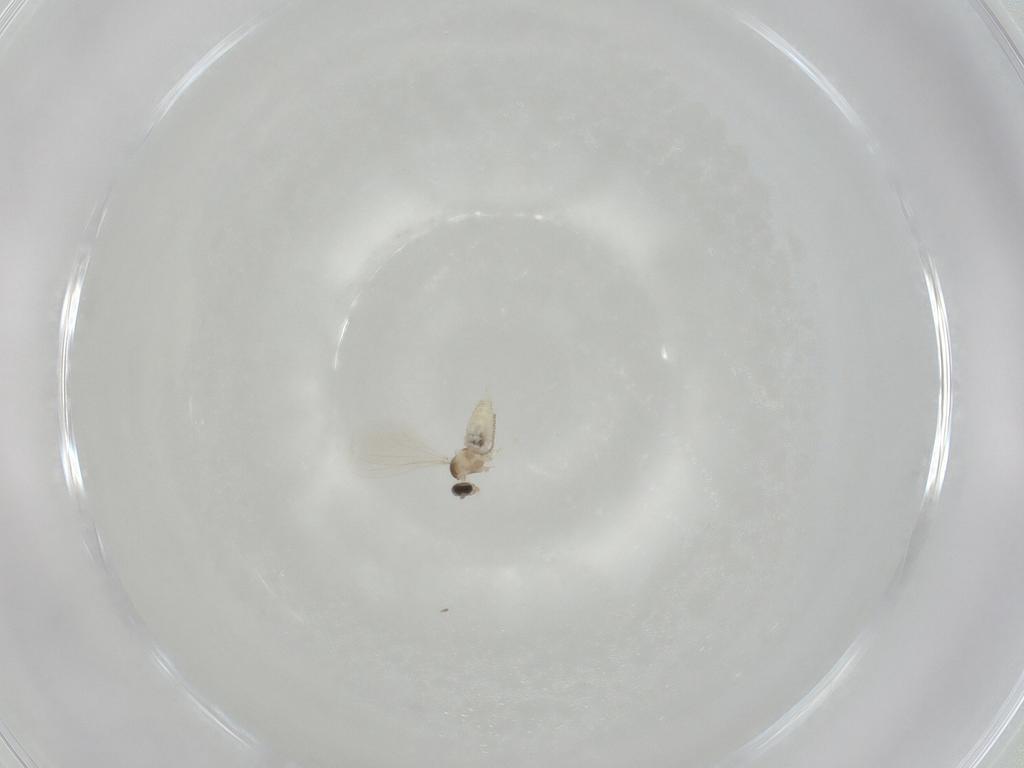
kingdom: Animalia
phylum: Arthropoda
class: Insecta
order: Diptera
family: Cecidomyiidae
